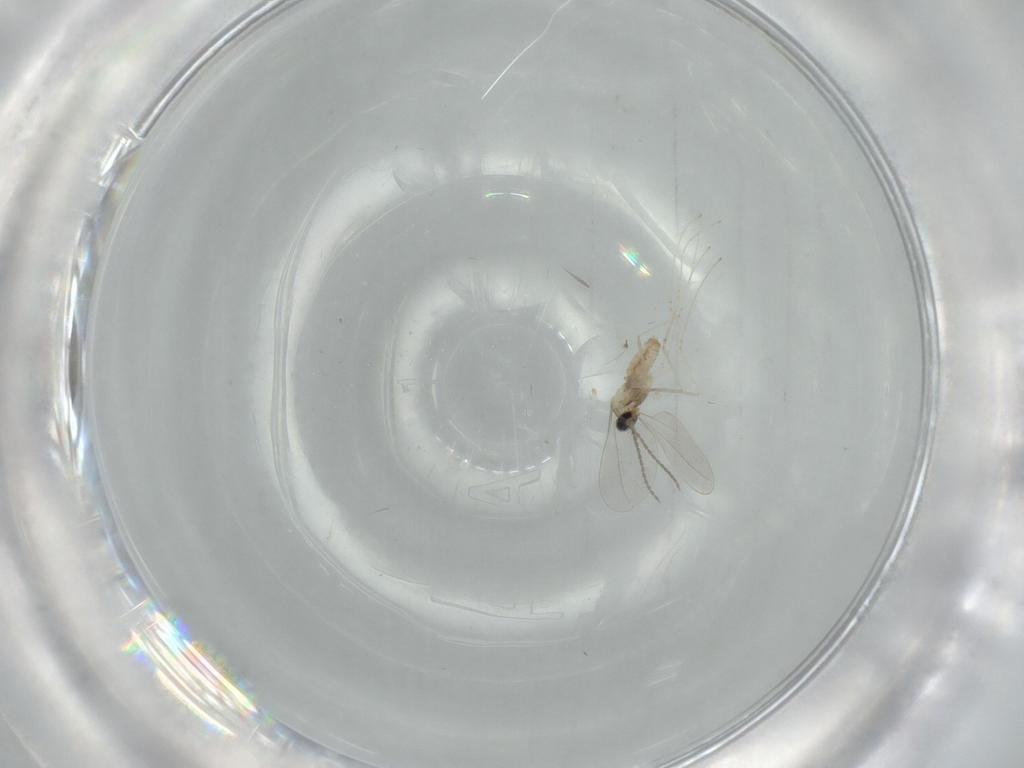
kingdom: Animalia
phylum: Arthropoda
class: Insecta
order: Diptera
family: Dolichopodidae
